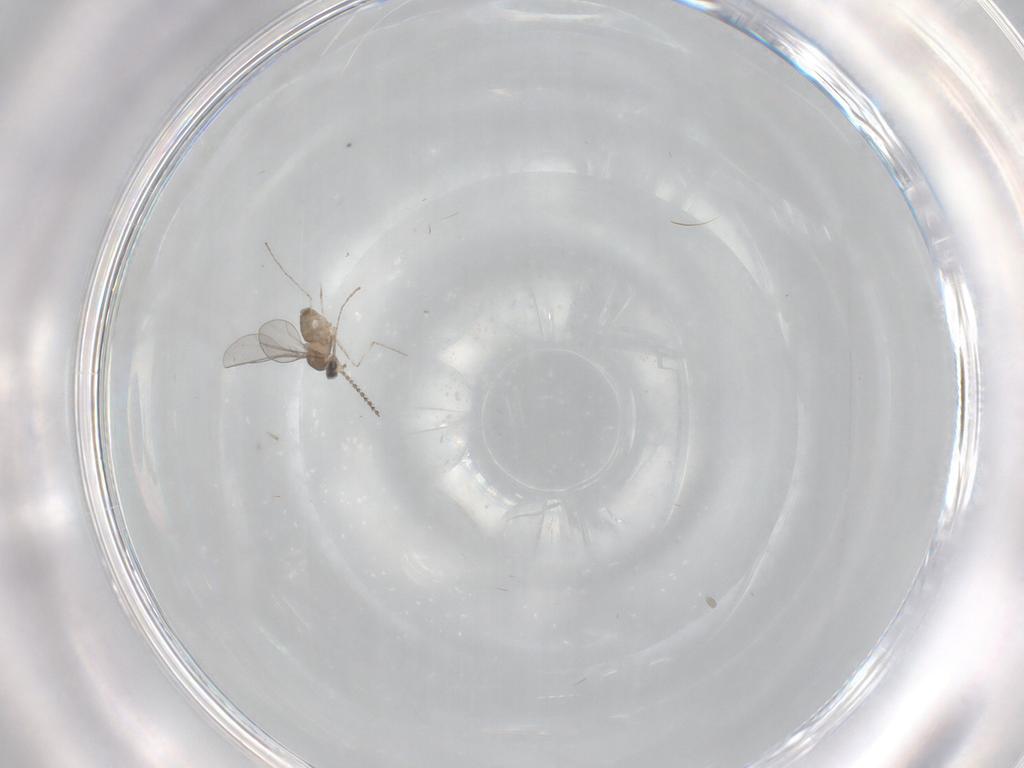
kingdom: Animalia
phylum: Arthropoda
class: Insecta
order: Diptera
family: Cecidomyiidae
